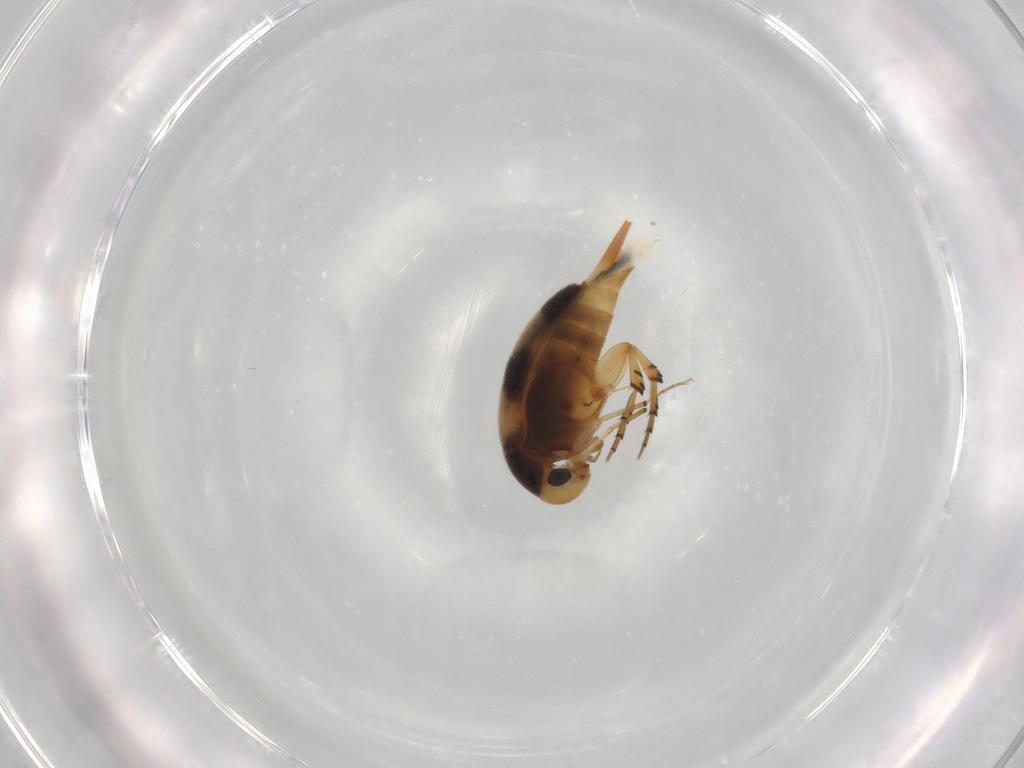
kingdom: Animalia
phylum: Arthropoda
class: Insecta
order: Coleoptera
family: Mordellidae
